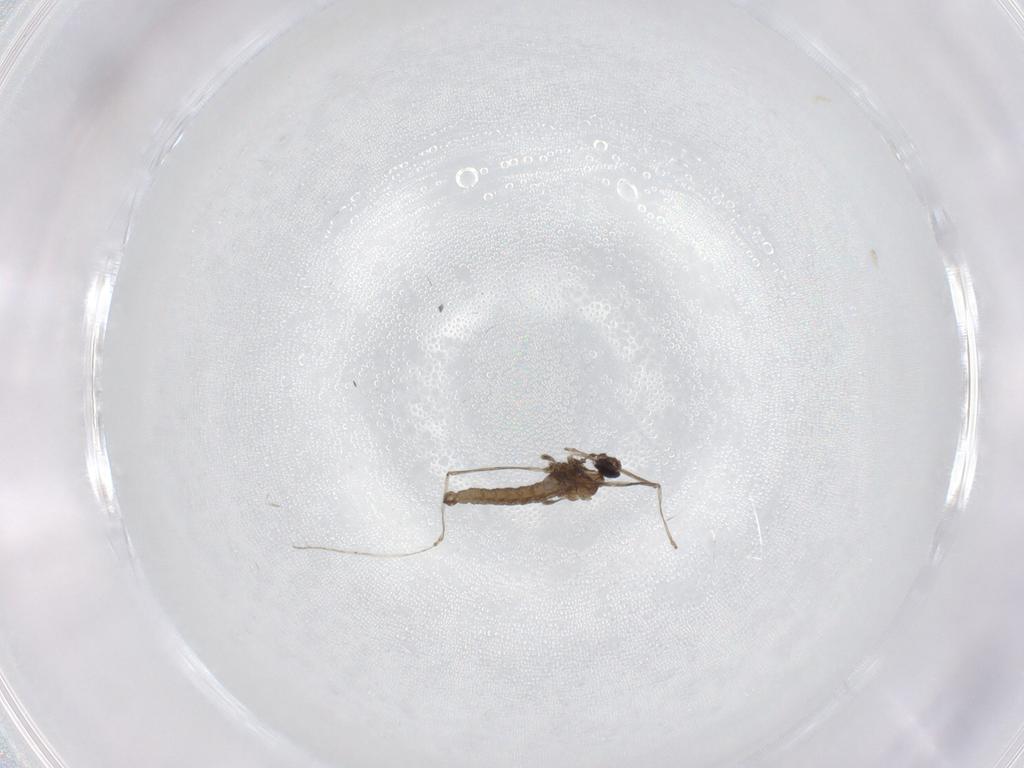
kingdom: Animalia
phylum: Arthropoda
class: Insecta
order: Diptera
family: Cecidomyiidae
